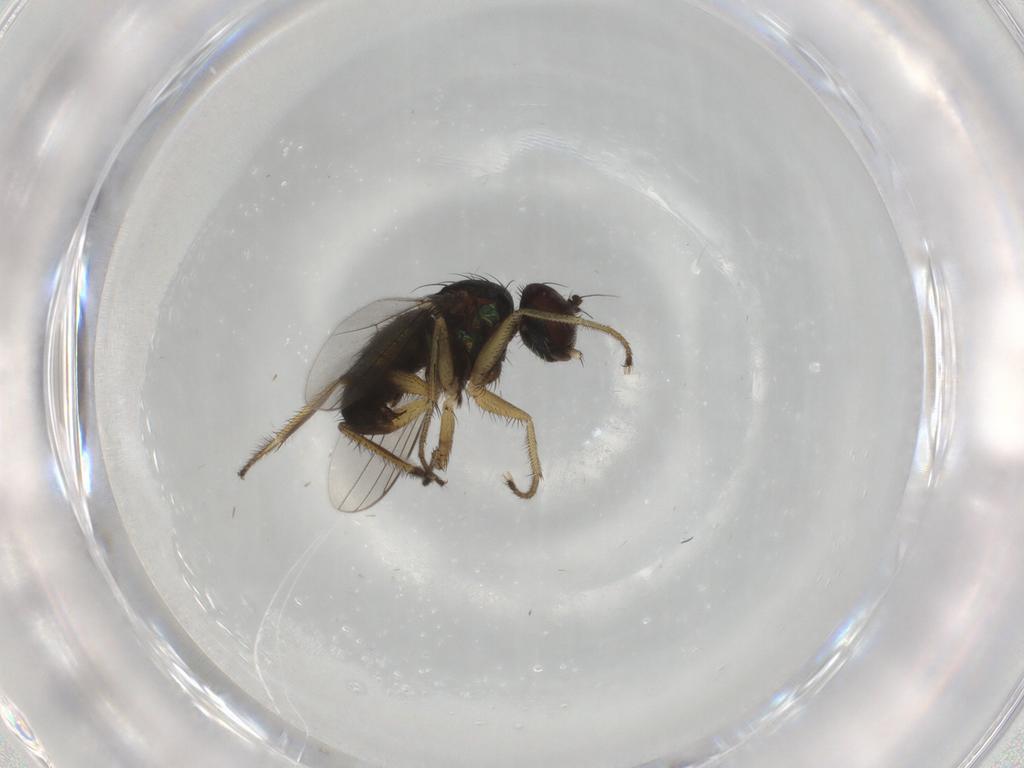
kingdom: Animalia
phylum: Arthropoda
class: Insecta
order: Diptera
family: Dolichopodidae
